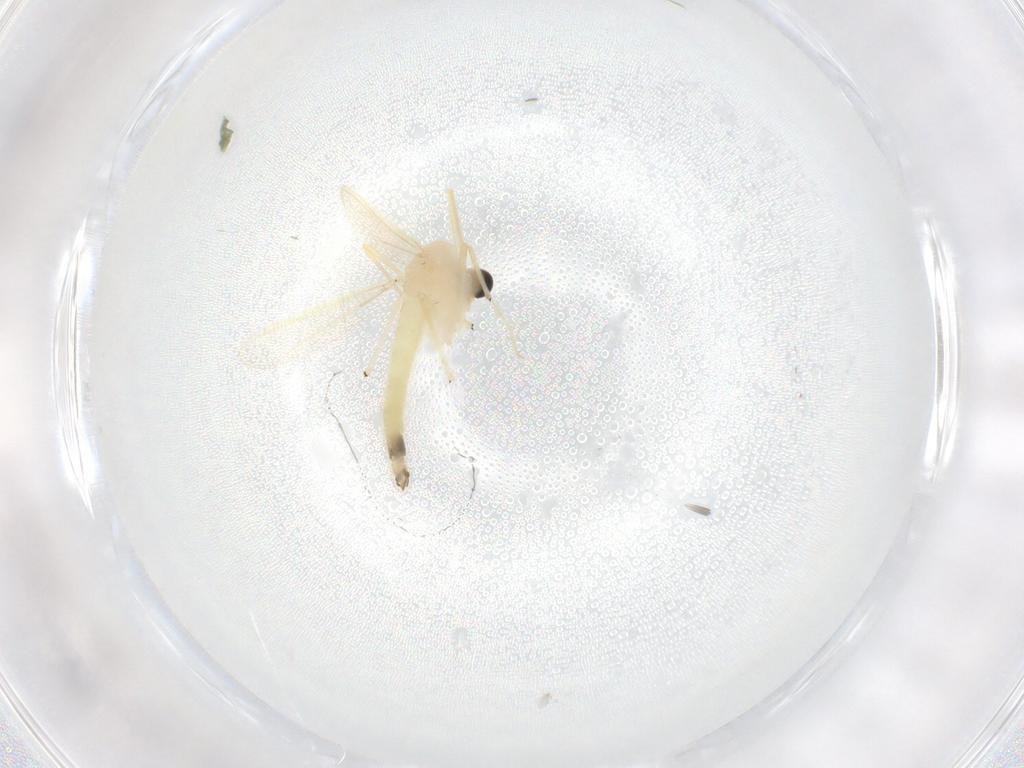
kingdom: Animalia
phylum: Arthropoda
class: Insecta
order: Diptera
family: Chironomidae
